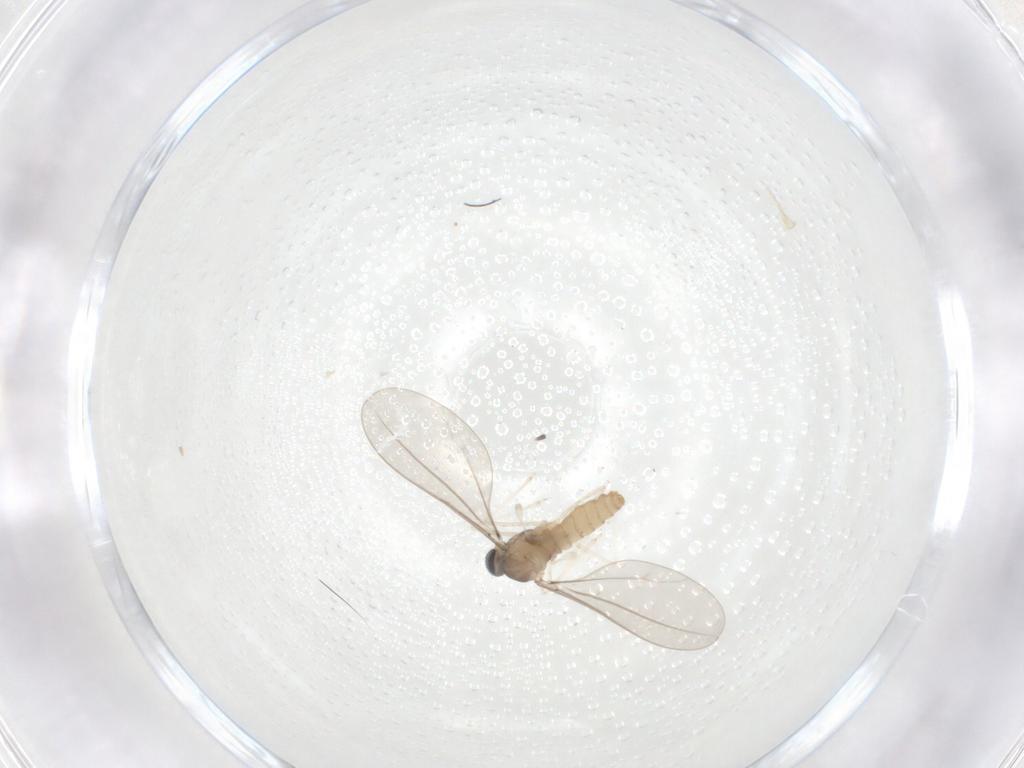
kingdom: Animalia
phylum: Arthropoda
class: Insecta
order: Diptera
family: Cecidomyiidae
